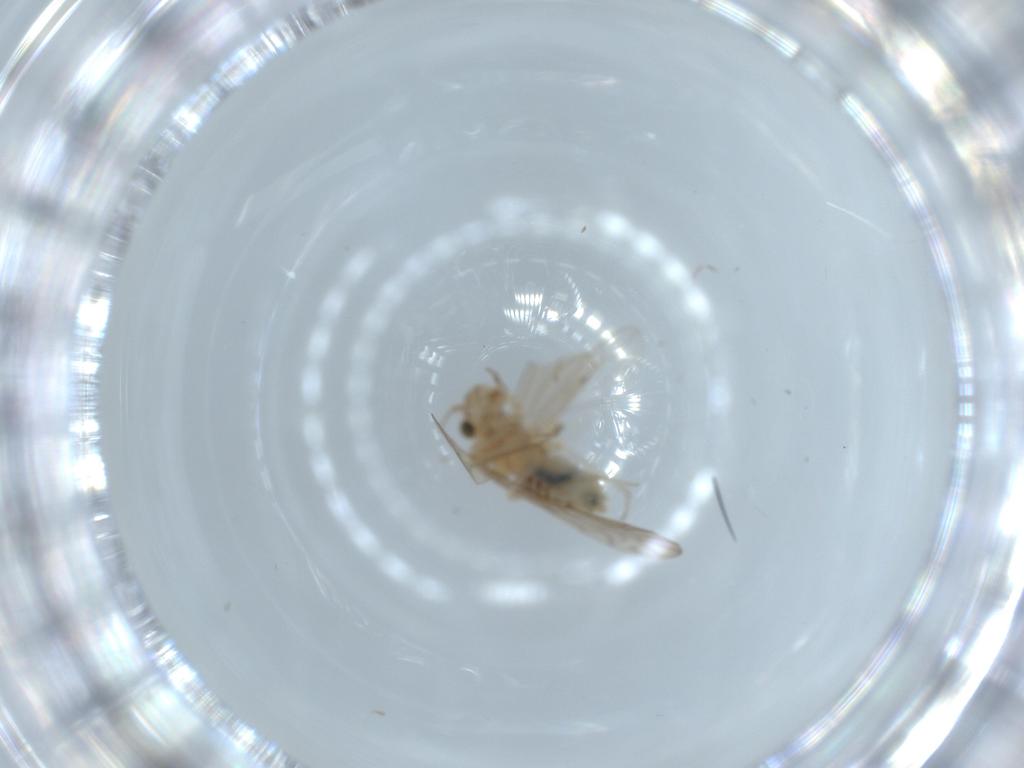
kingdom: Animalia
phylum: Arthropoda
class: Insecta
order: Psocodea
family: Lachesillidae
